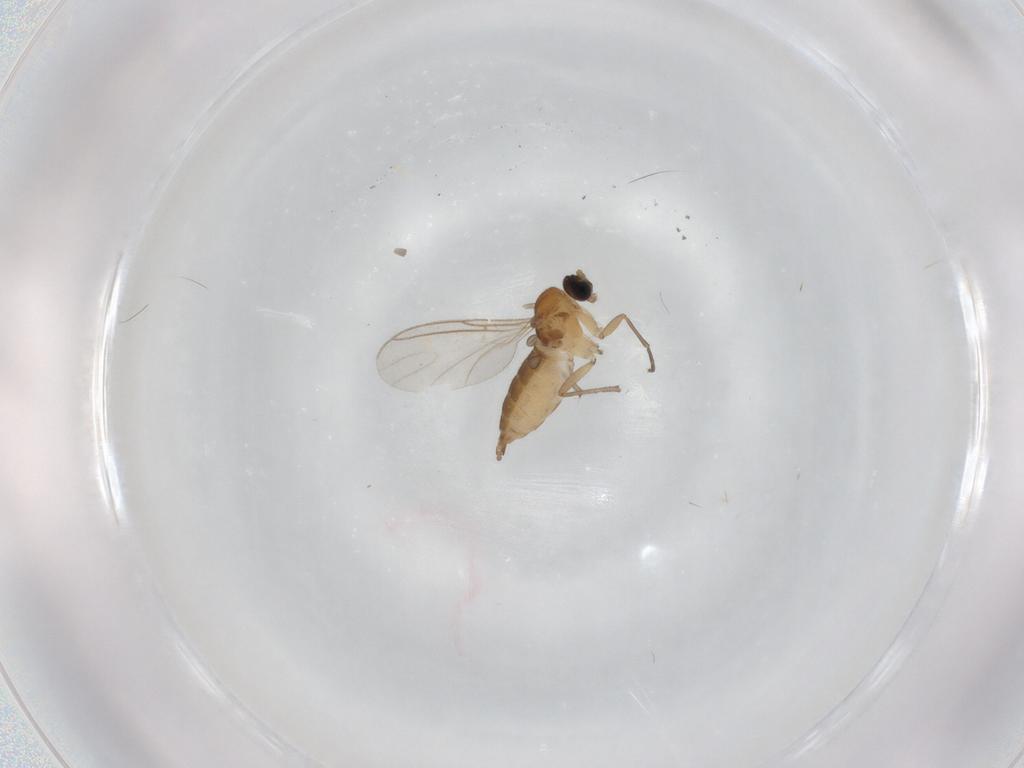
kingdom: Animalia
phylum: Arthropoda
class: Insecta
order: Diptera
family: Sciaridae
